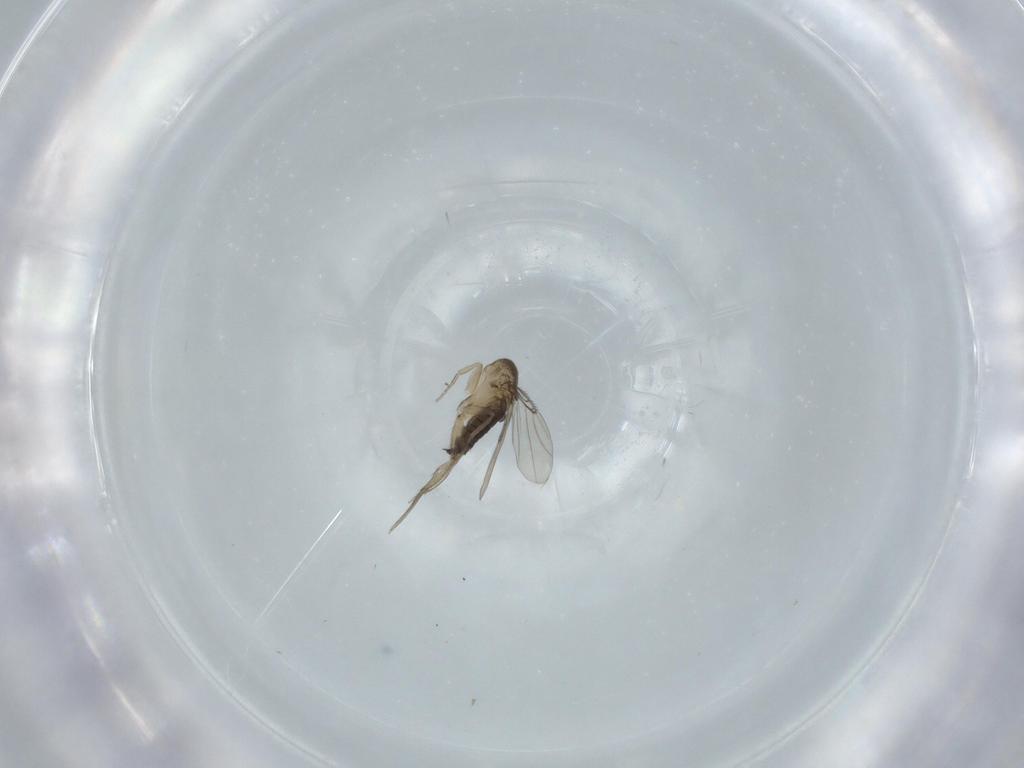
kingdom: Animalia
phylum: Arthropoda
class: Insecta
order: Diptera
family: Phoridae
